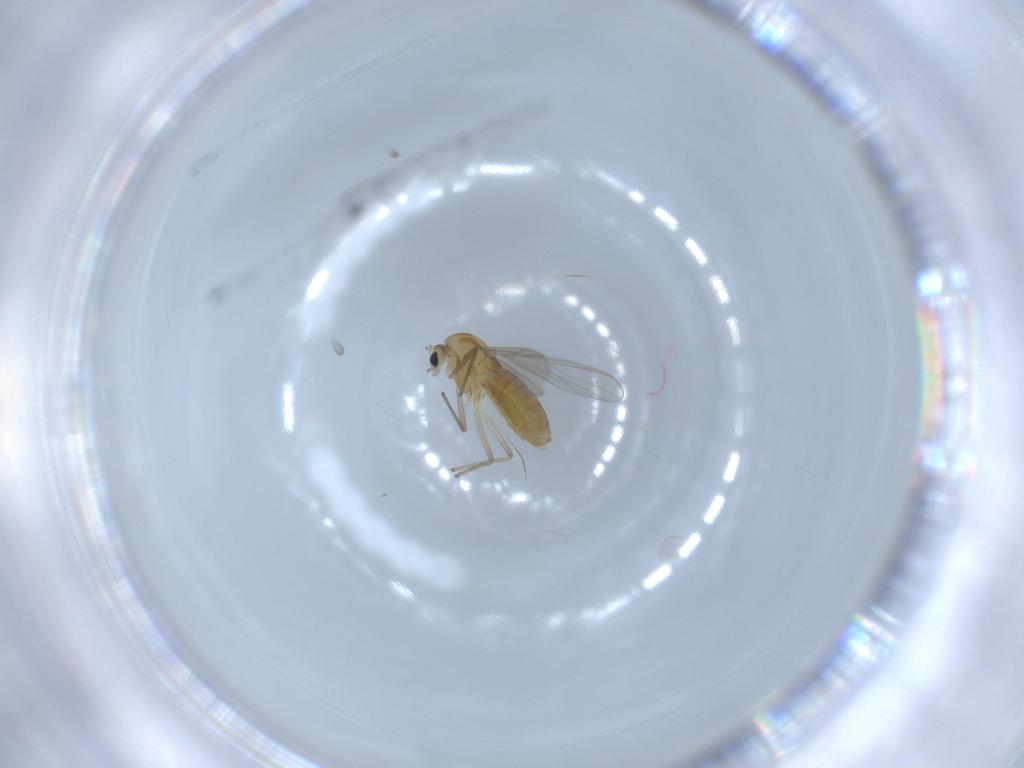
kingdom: Animalia
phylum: Arthropoda
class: Insecta
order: Diptera
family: Chironomidae
